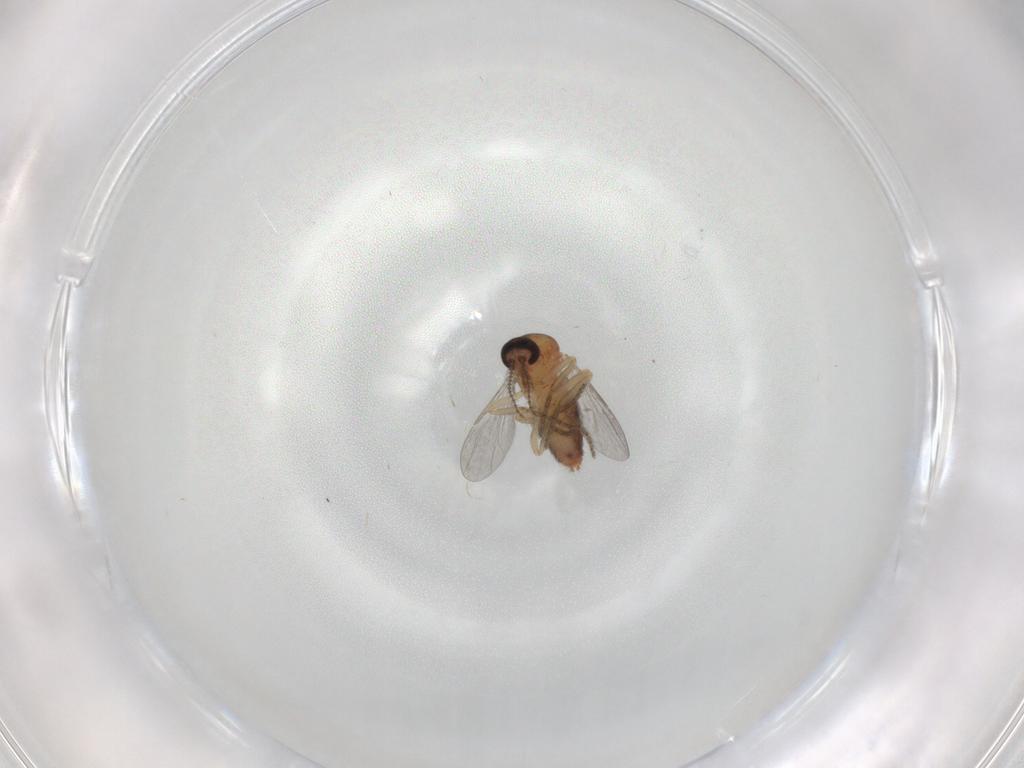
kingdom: Animalia
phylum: Arthropoda
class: Insecta
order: Diptera
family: Ceratopogonidae
